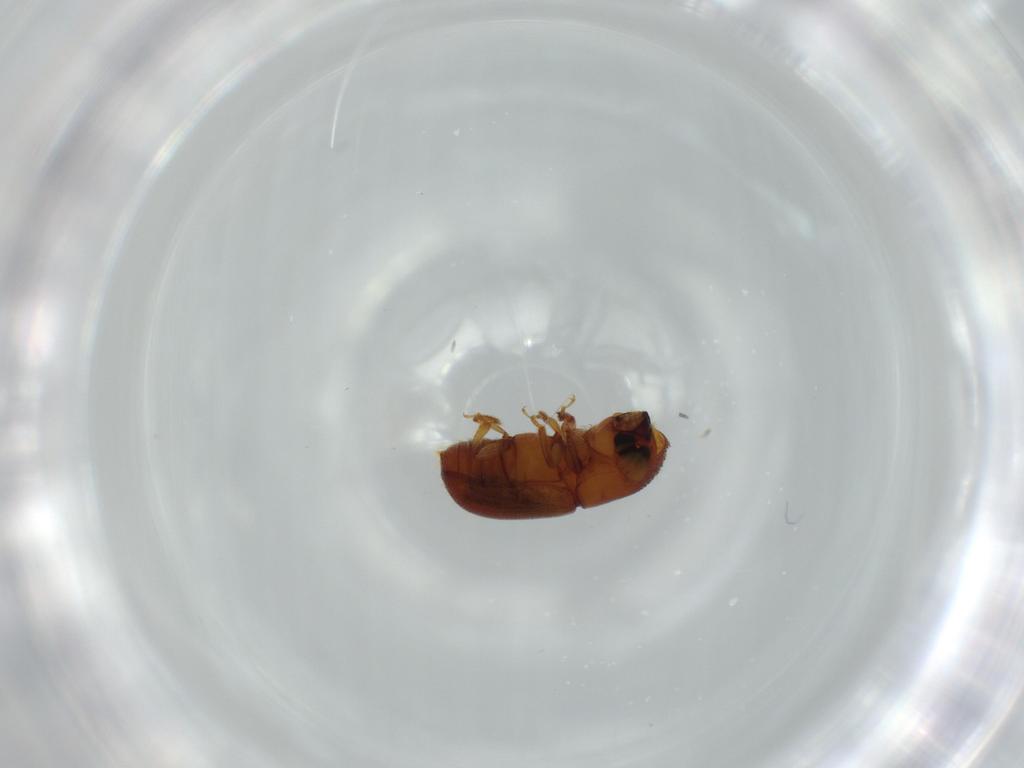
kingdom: Animalia
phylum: Arthropoda
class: Insecta
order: Coleoptera
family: Curculionidae
